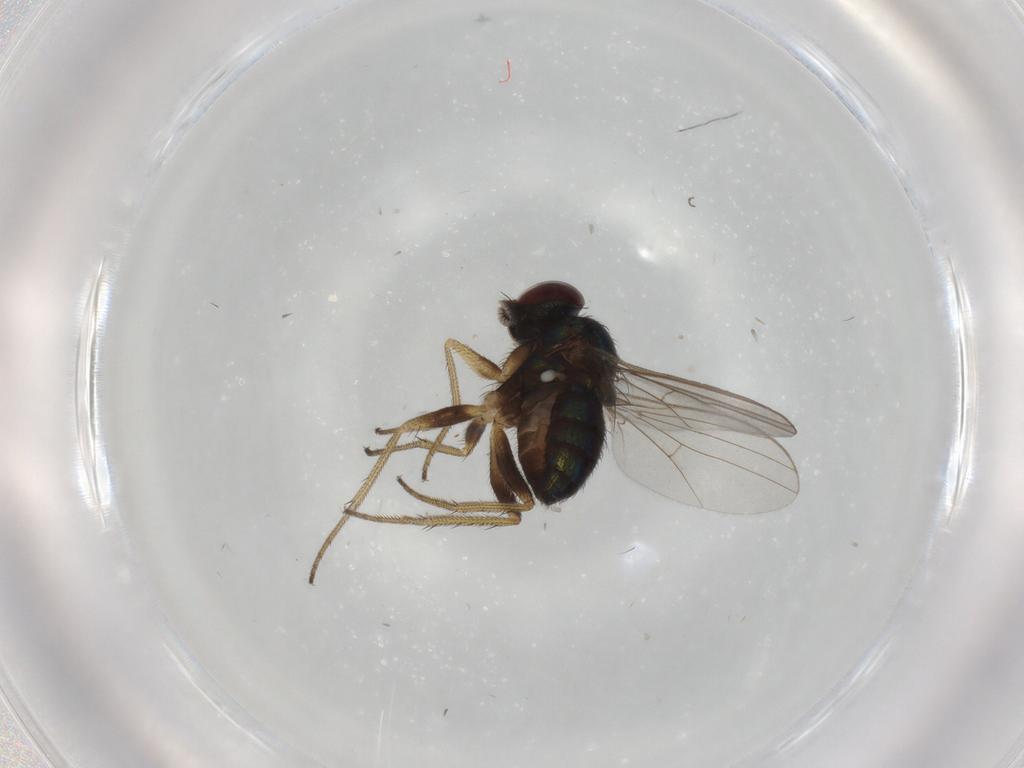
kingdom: Animalia
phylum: Arthropoda
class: Insecta
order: Diptera
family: Dolichopodidae
